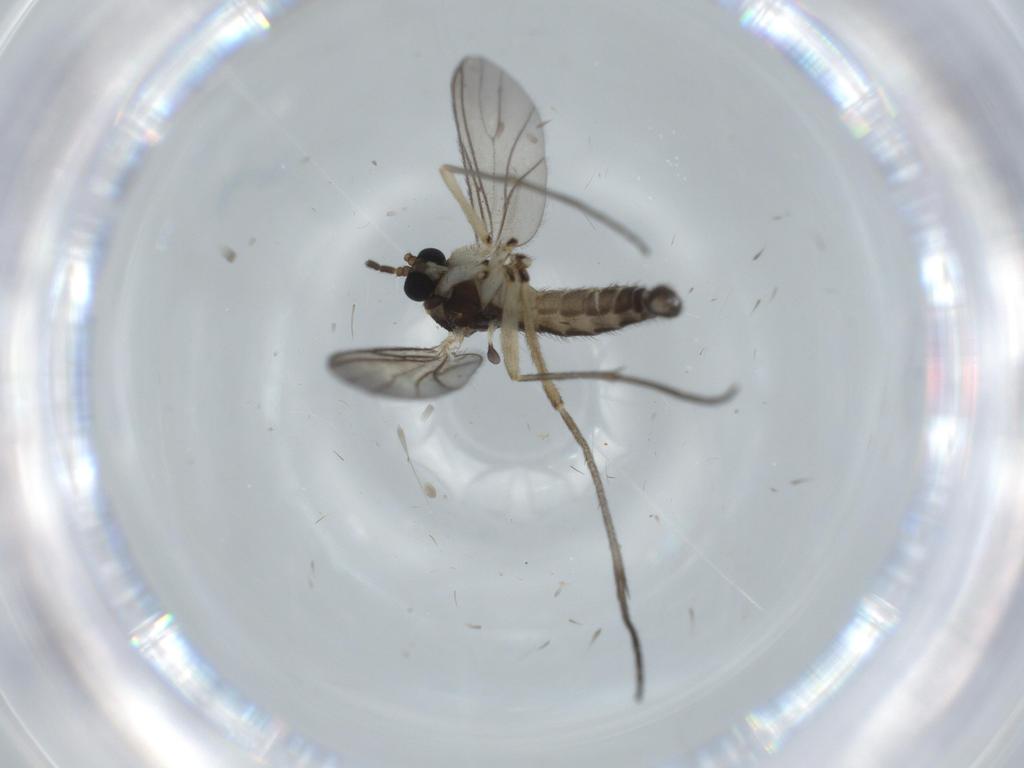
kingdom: Animalia
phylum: Arthropoda
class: Insecta
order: Diptera
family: Sciaridae
